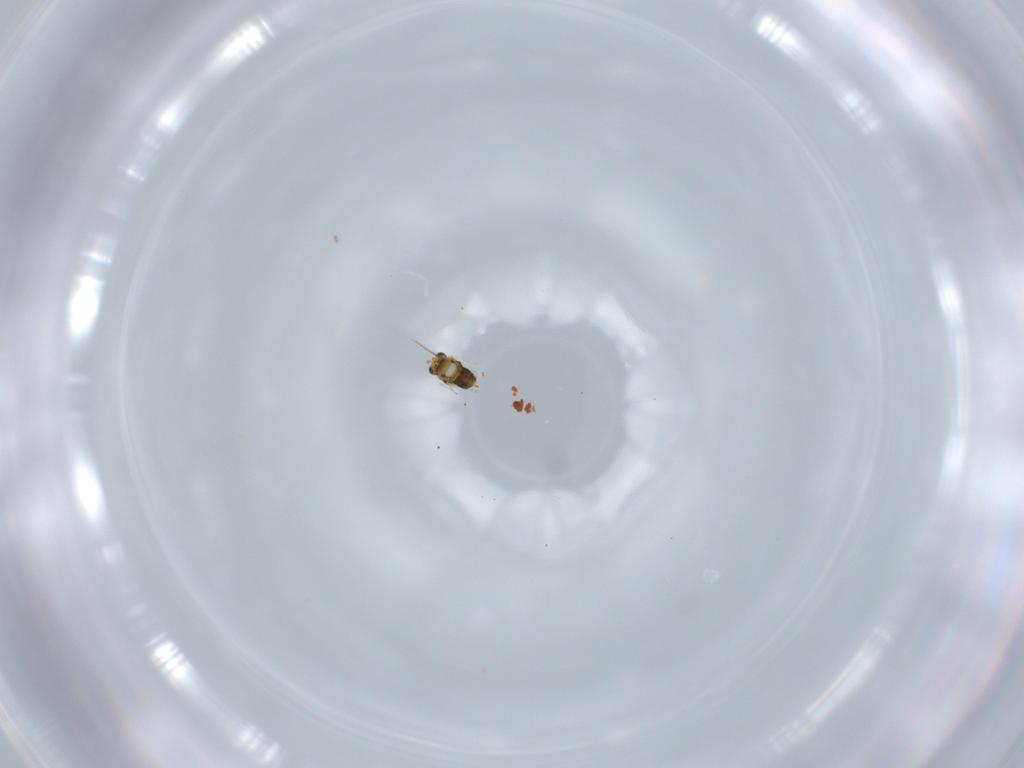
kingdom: Animalia
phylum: Arthropoda
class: Insecta
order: Hymenoptera
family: Aphelinidae
